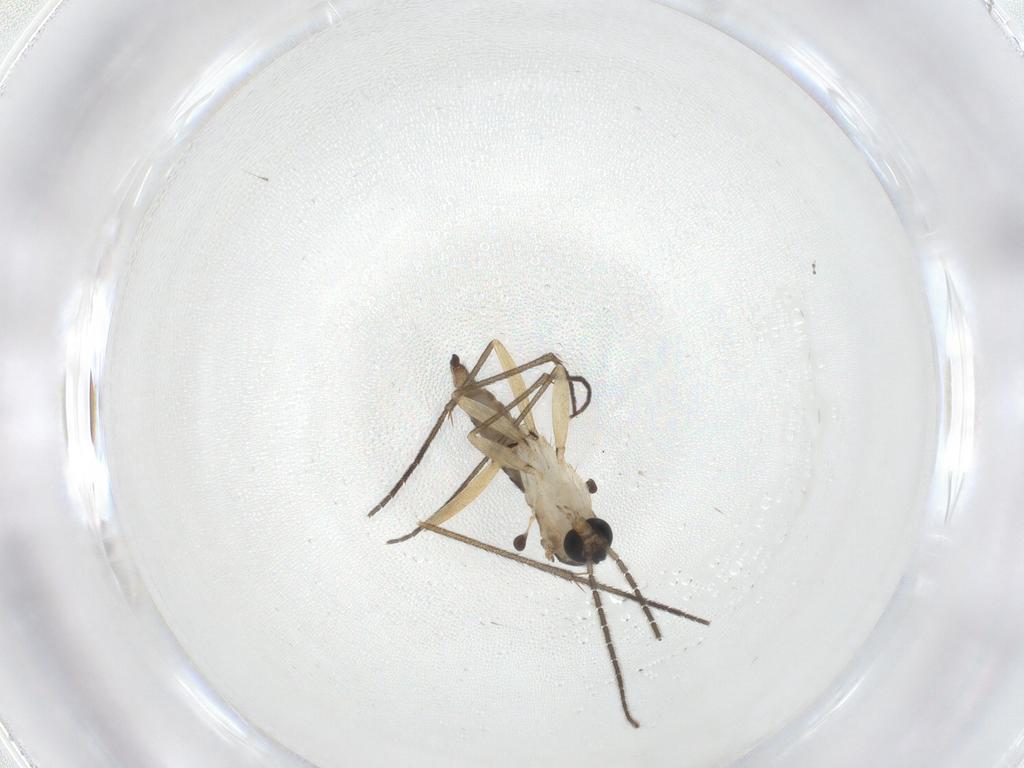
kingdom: Animalia
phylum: Arthropoda
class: Insecta
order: Diptera
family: Sciaridae
